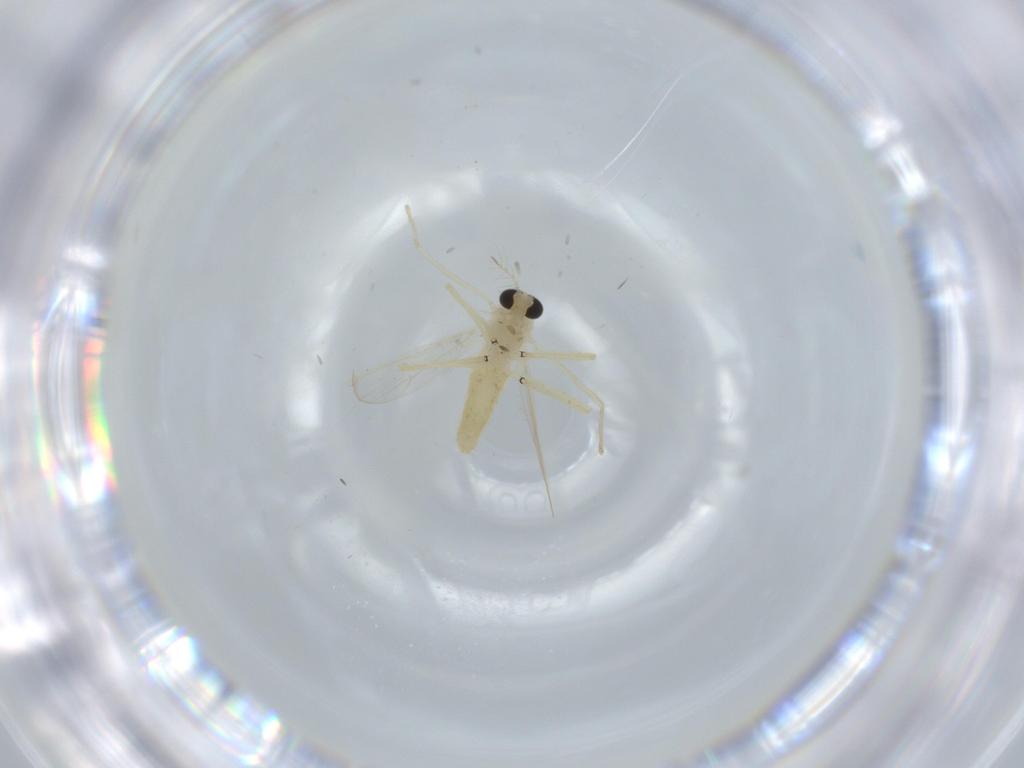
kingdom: Animalia
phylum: Arthropoda
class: Insecta
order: Diptera
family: Chironomidae
